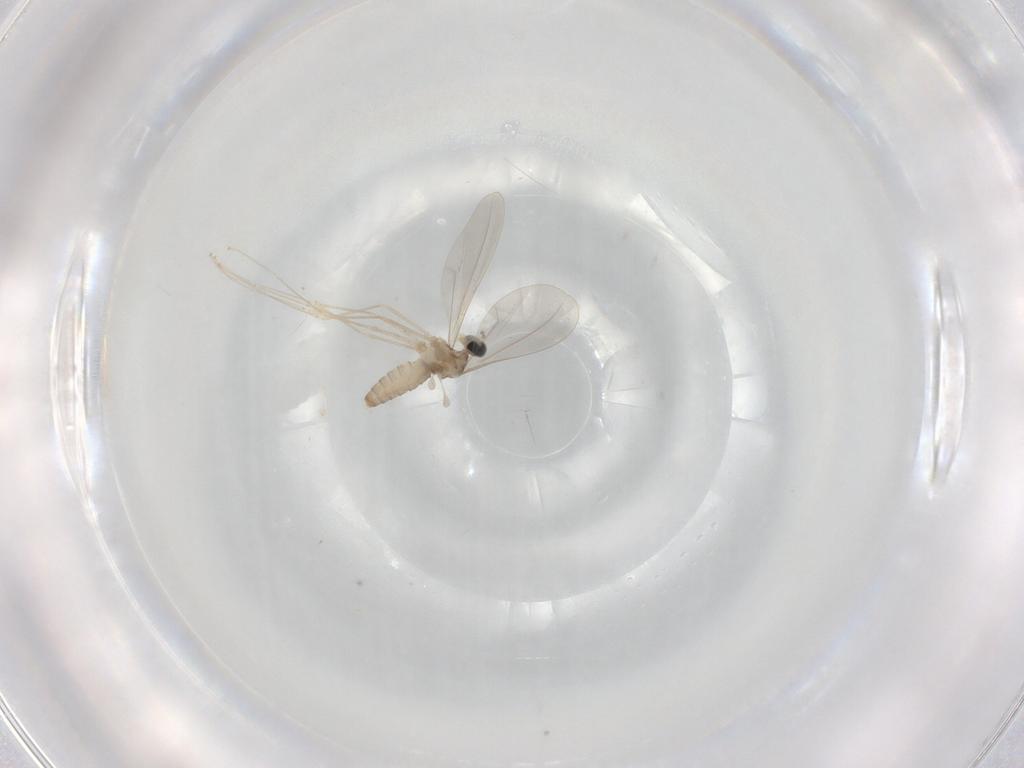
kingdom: Animalia
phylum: Arthropoda
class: Insecta
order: Diptera
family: Cecidomyiidae
